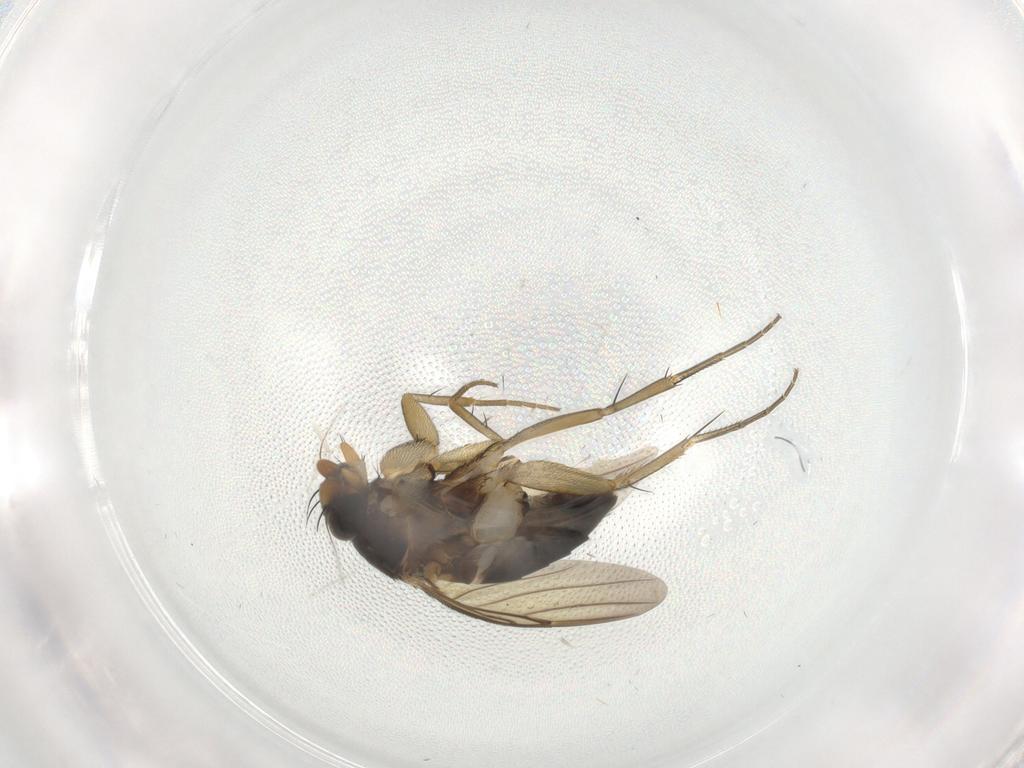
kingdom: Animalia
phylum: Arthropoda
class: Insecta
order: Diptera
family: Phoridae
